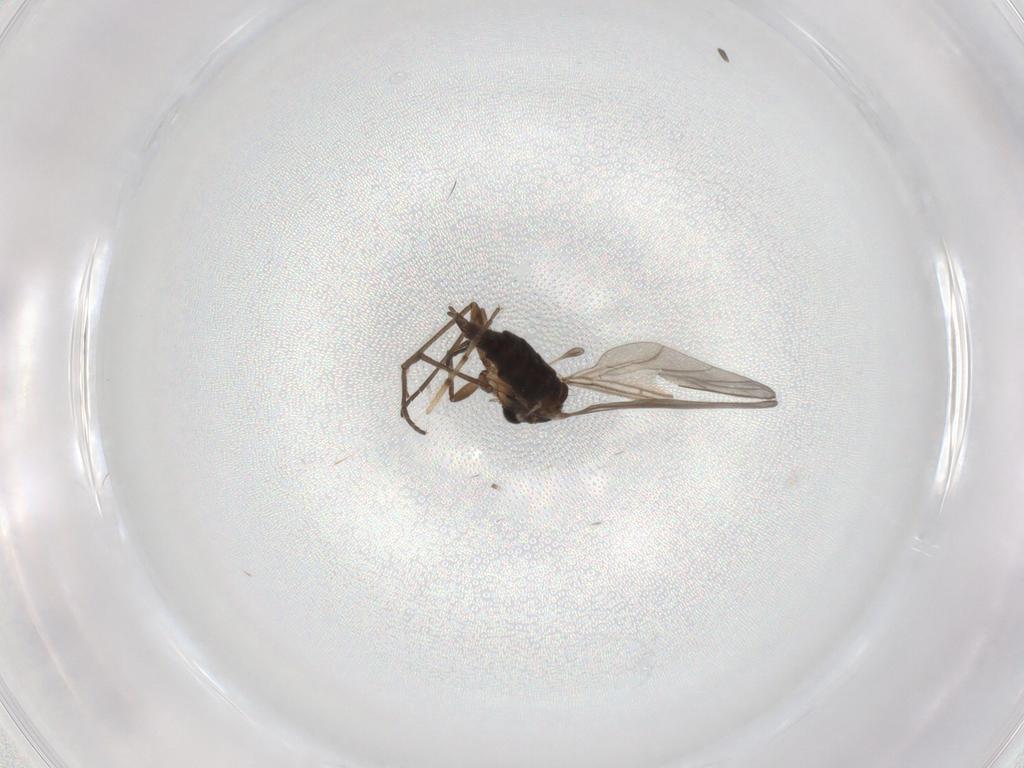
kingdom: Animalia
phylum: Arthropoda
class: Insecta
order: Diptera
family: Sciaridae
